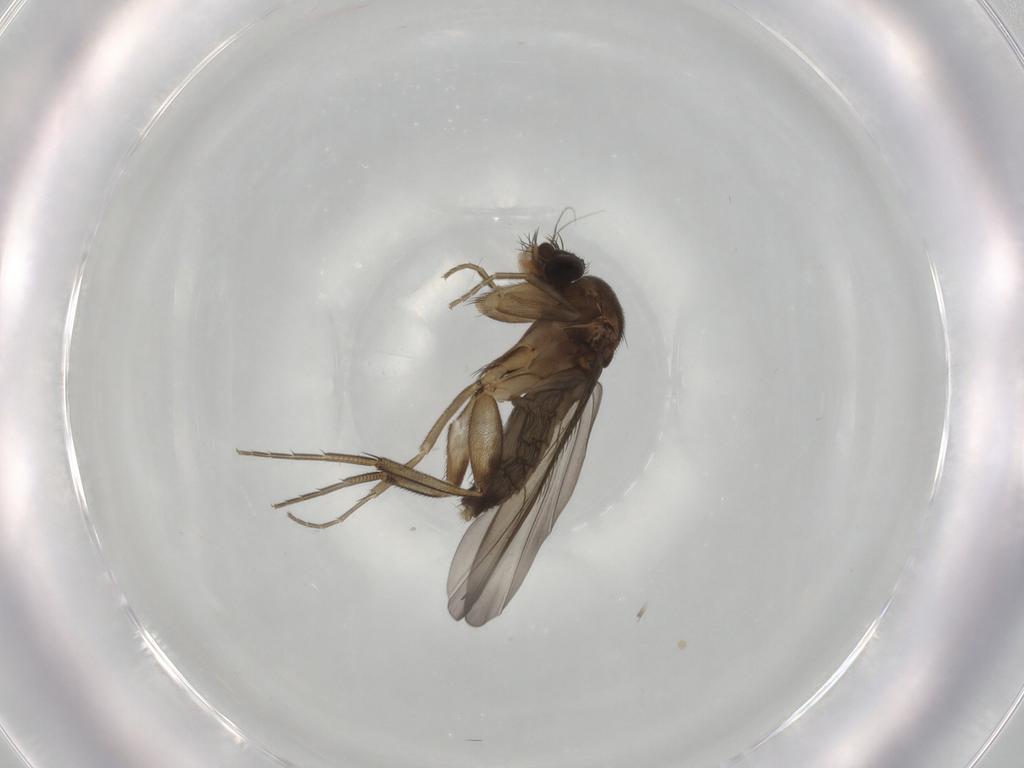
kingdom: Animalia
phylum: Arthropoda
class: Insecta
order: Diptera
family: Phoridae
